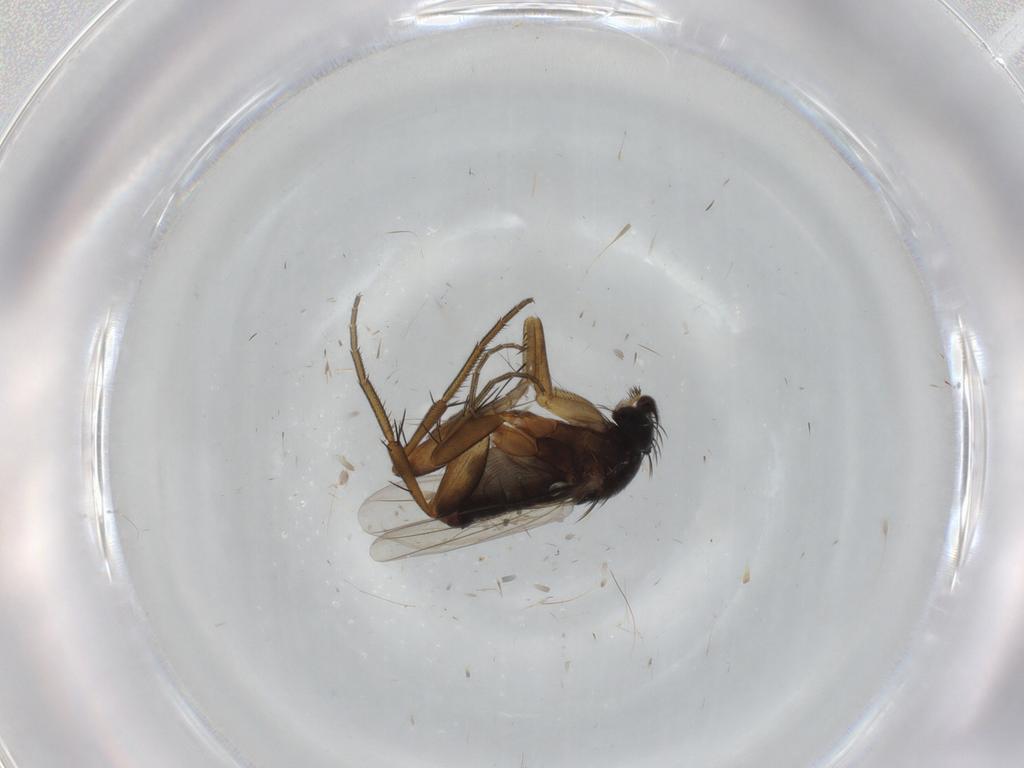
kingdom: Animalia
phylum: Arthropoda
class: Insecta
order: Diptera
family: Phoridae
